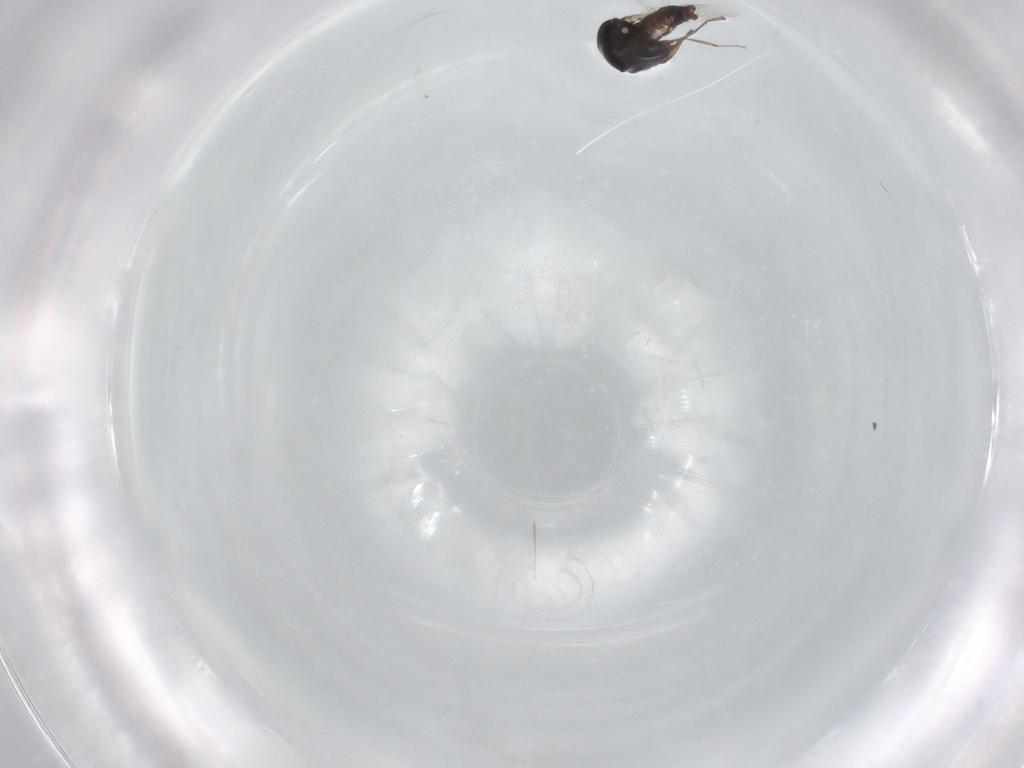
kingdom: Animalia
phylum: Arthropoda
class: Insecta
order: Diptera
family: Ceratopogonidae
